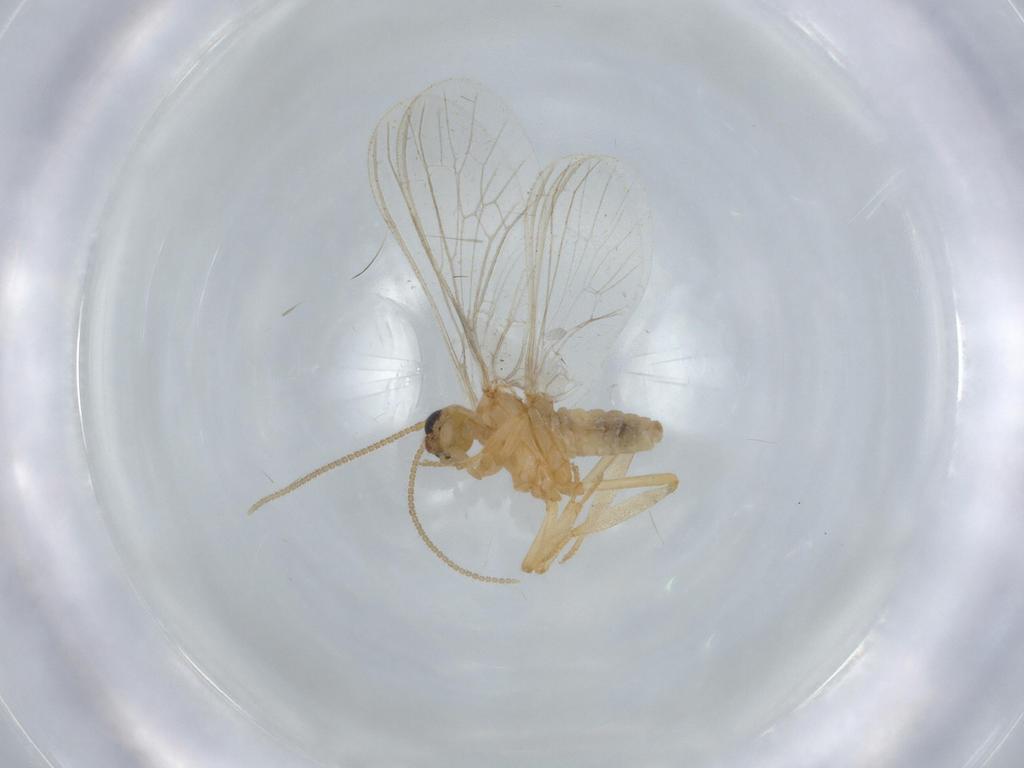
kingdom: Animalia
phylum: Arthropoda
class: Insecta
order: Neuroptera
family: Coniopterygidae
